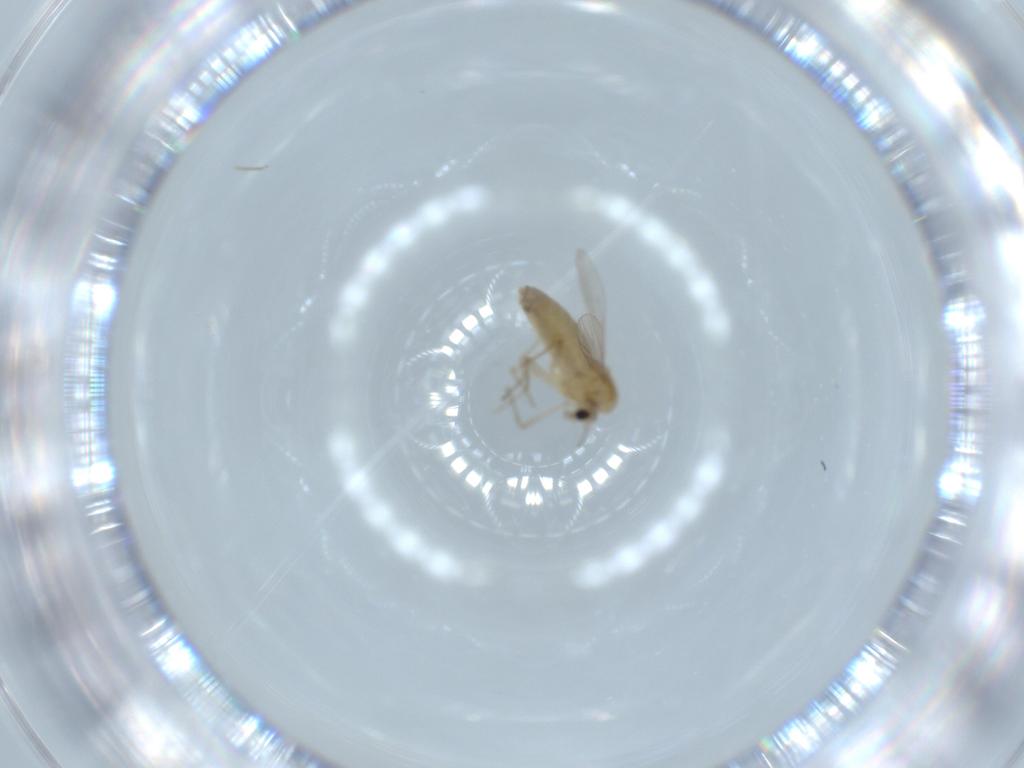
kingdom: Animalia
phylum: Arthropoda
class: Insecta
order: Diptera
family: Chironomidae
